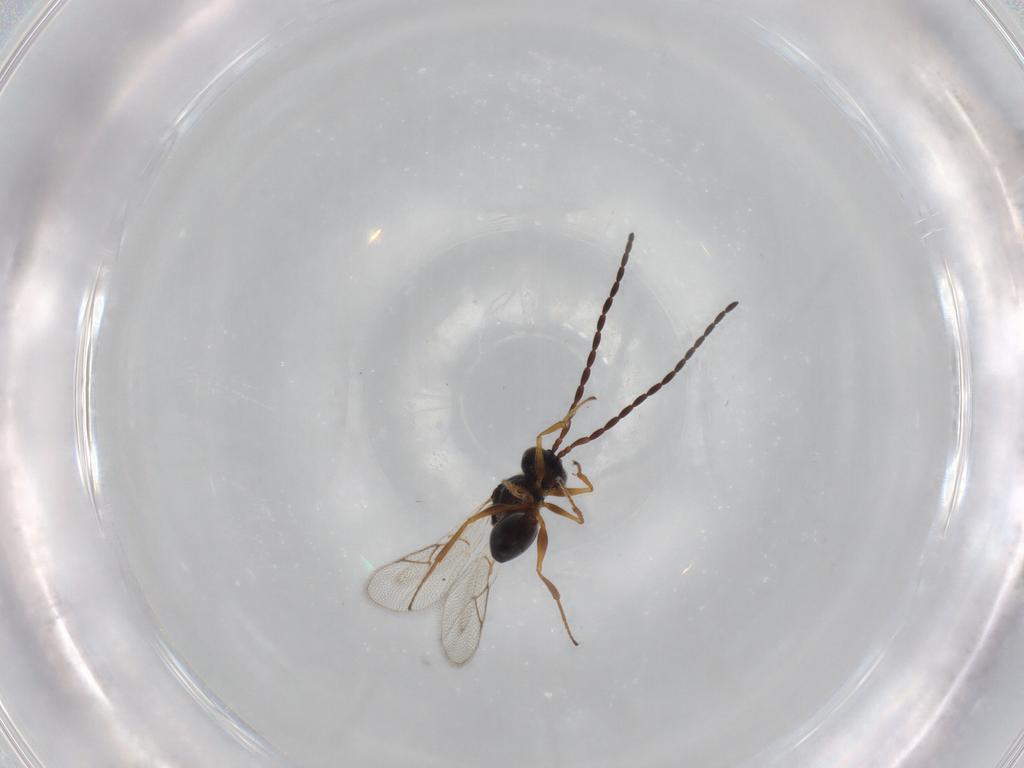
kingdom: Animalia
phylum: Arthropoda
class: Insecta
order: Hymenoptera
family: Figitidae
